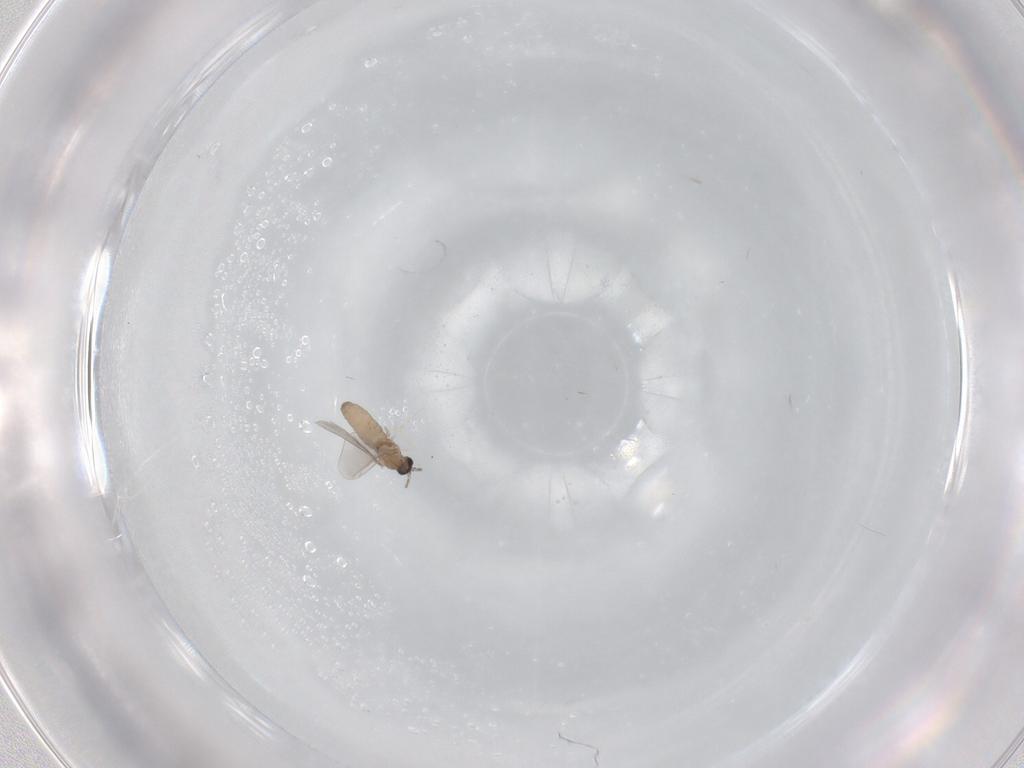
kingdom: Animalia
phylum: Arthropoda
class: Insecta
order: Diptera
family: Cecidomyiidae
